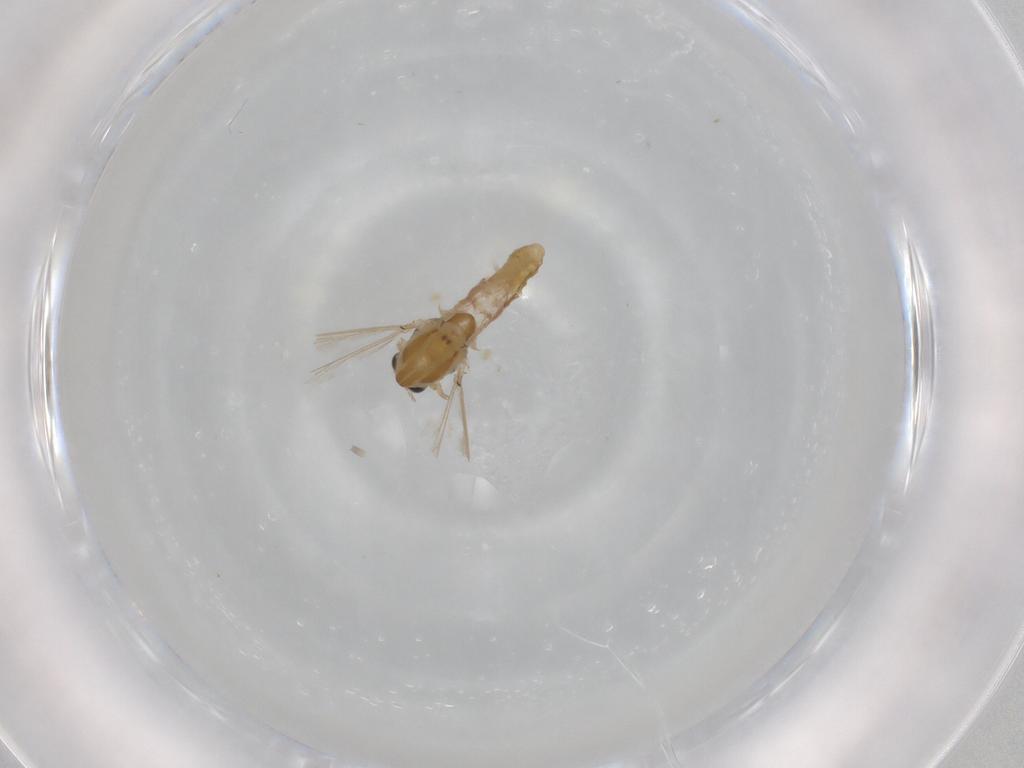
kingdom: Animalia
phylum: Arthropoda
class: Insecta
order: Diptera
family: Chironomidae
